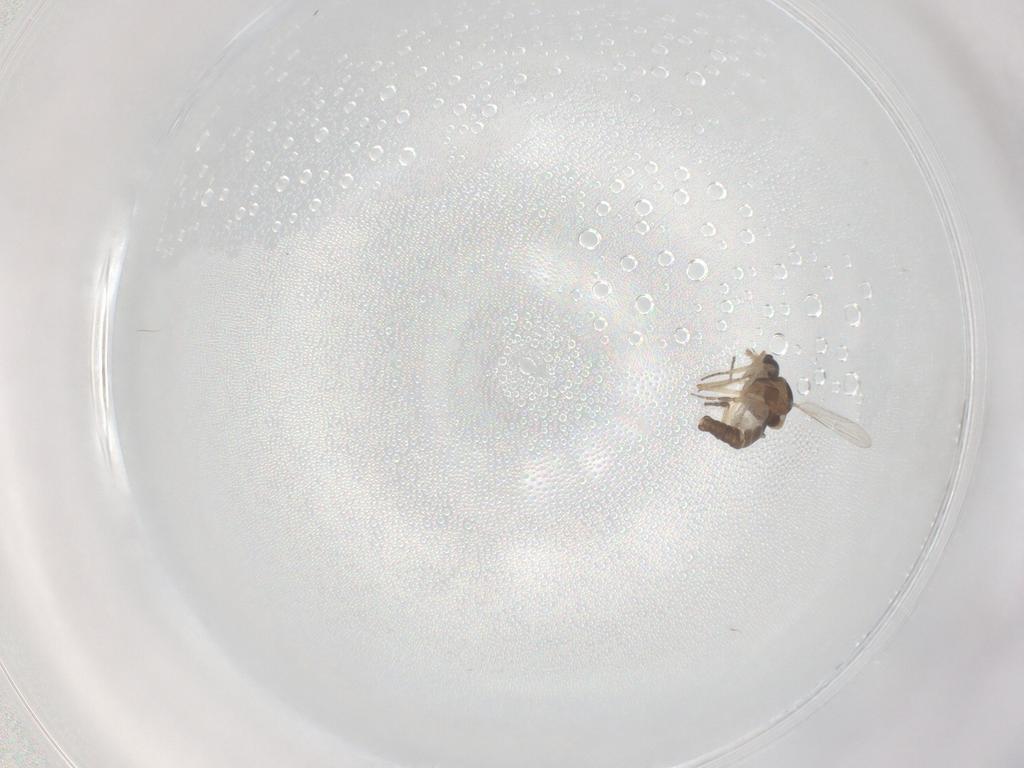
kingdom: Animalia
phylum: Arthropoda
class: Insecta
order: Diptera
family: Ceratopogonidae
